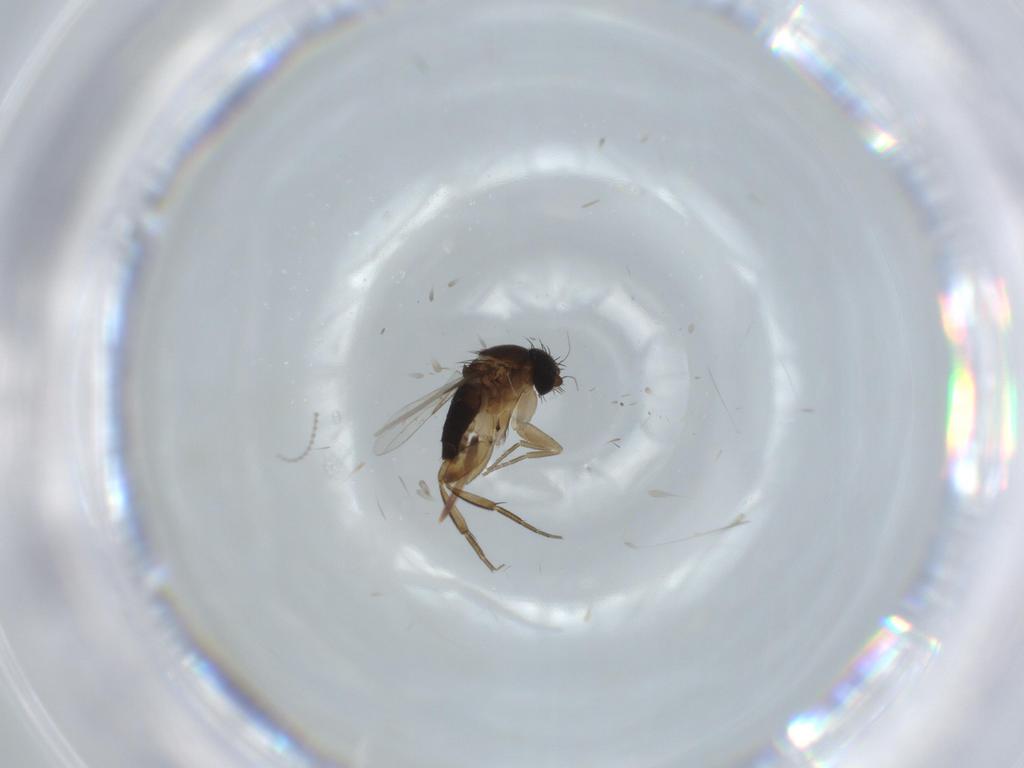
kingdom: Animalia
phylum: Arthropoda
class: Insecta
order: Diptera
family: Phoridae
